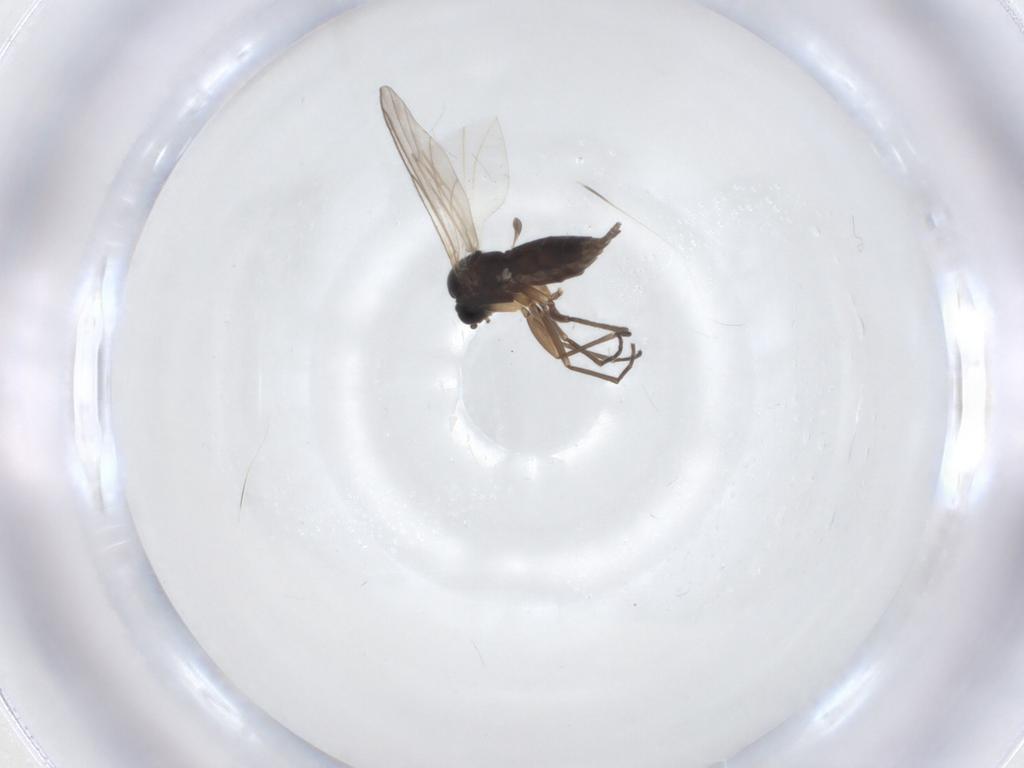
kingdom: Animalia
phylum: Arthropoda
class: Insecta
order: Diptera
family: Sciaridae
